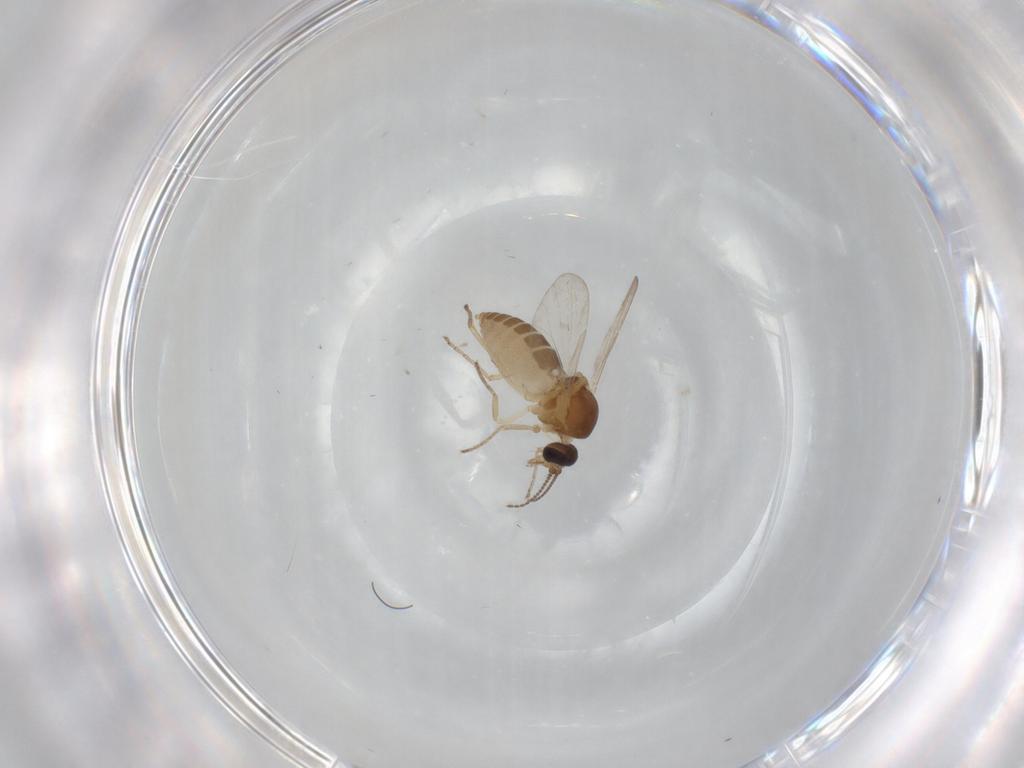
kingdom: Animalia
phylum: Arthropoda
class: Insecta
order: Diptera
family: Ceratopogonidae
